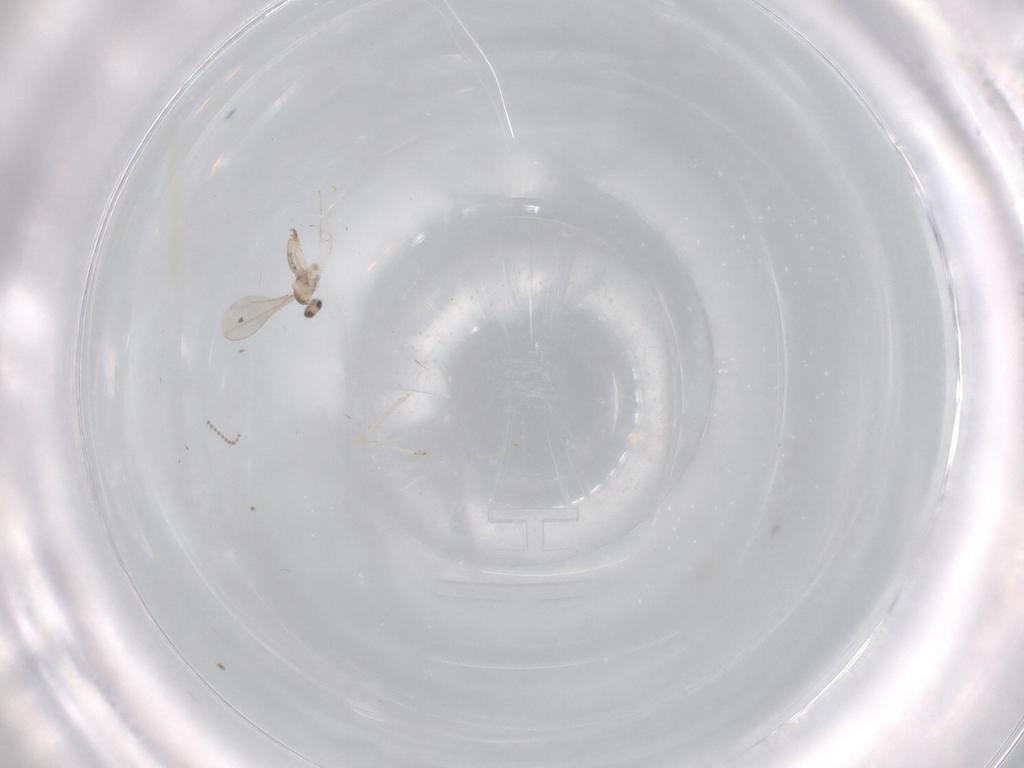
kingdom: Animalia
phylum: Arthropoda
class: Insecta
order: Diptera
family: Cecidomyiidae
